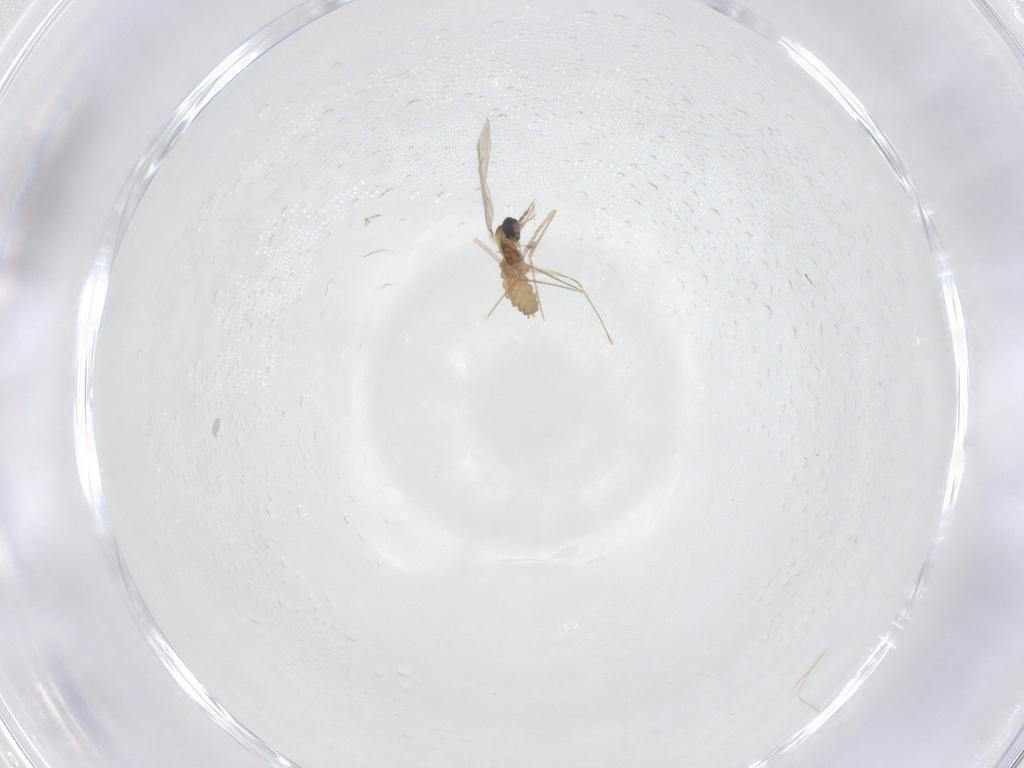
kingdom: Animalia
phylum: Arthropoda
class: Insecta
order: Diptera
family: Cecidomyiidae
